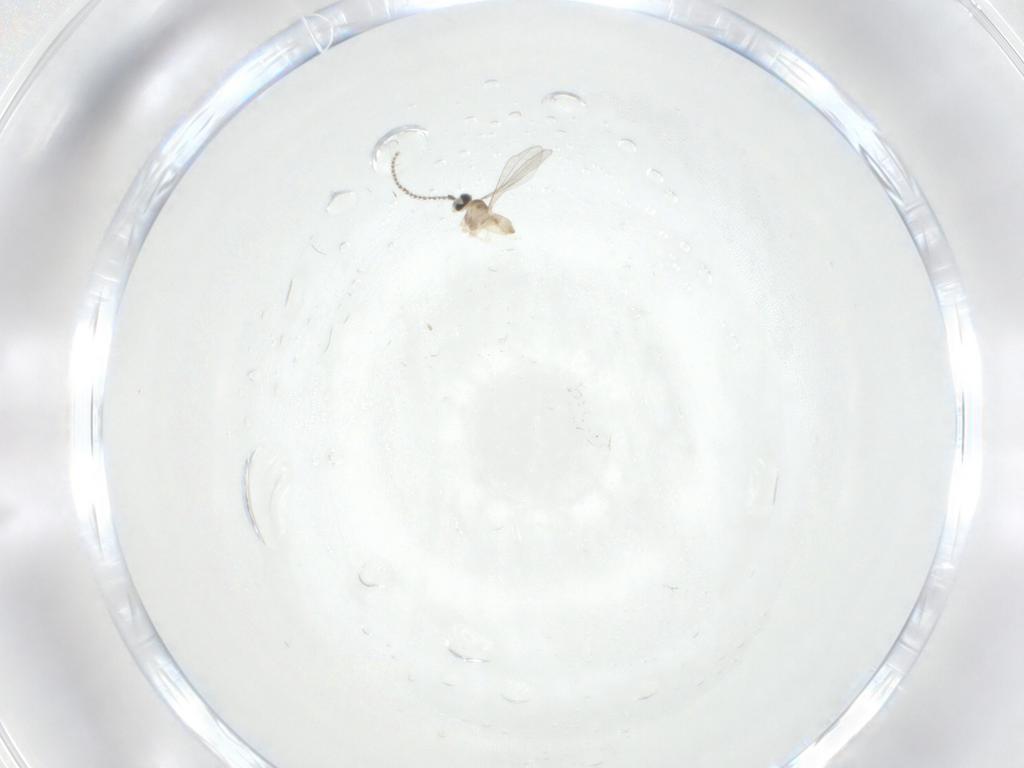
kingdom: Animalia
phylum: Arthropoda
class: Insecta
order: Diptera
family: Cecidomyiidae
